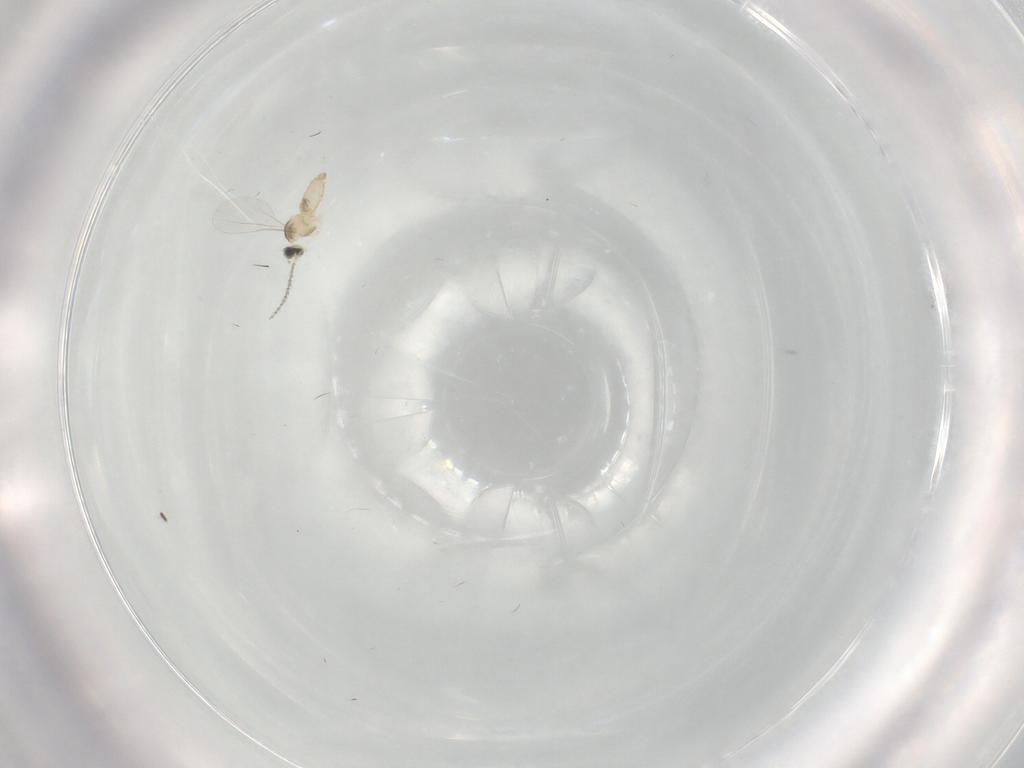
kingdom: Animalia
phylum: Arthropoda
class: Insecta
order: Diptera
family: Cecidomyiidae
